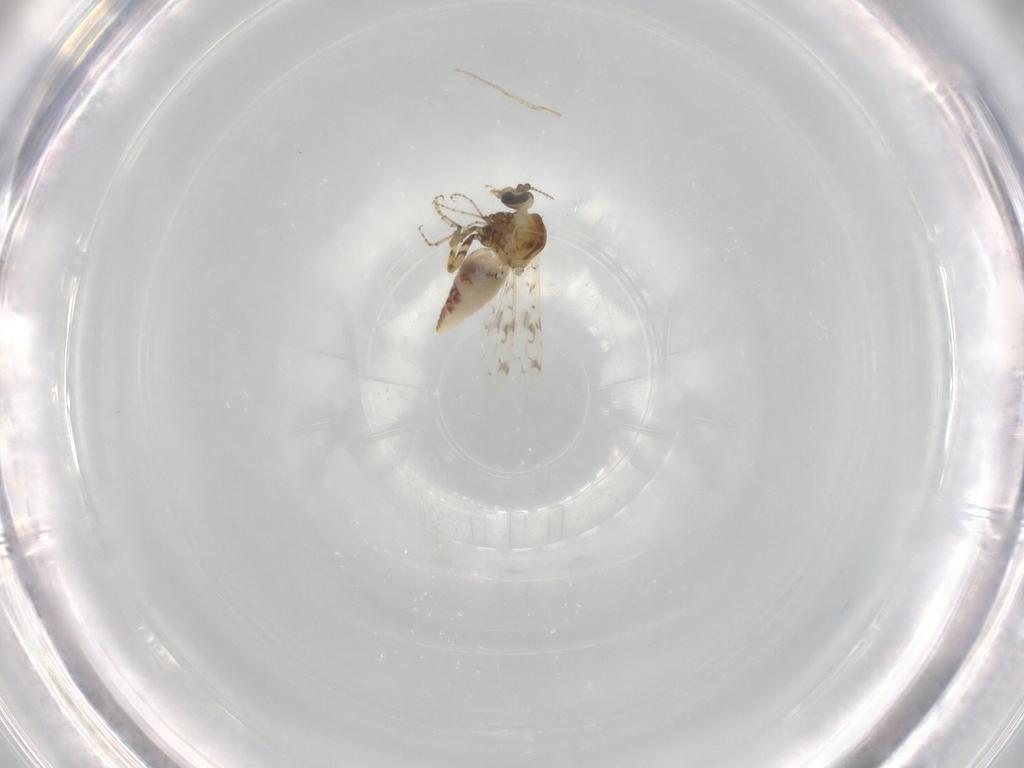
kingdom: Animalia
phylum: Arthropoda
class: Insecta
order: Diptera
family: Ceratopogonidae
